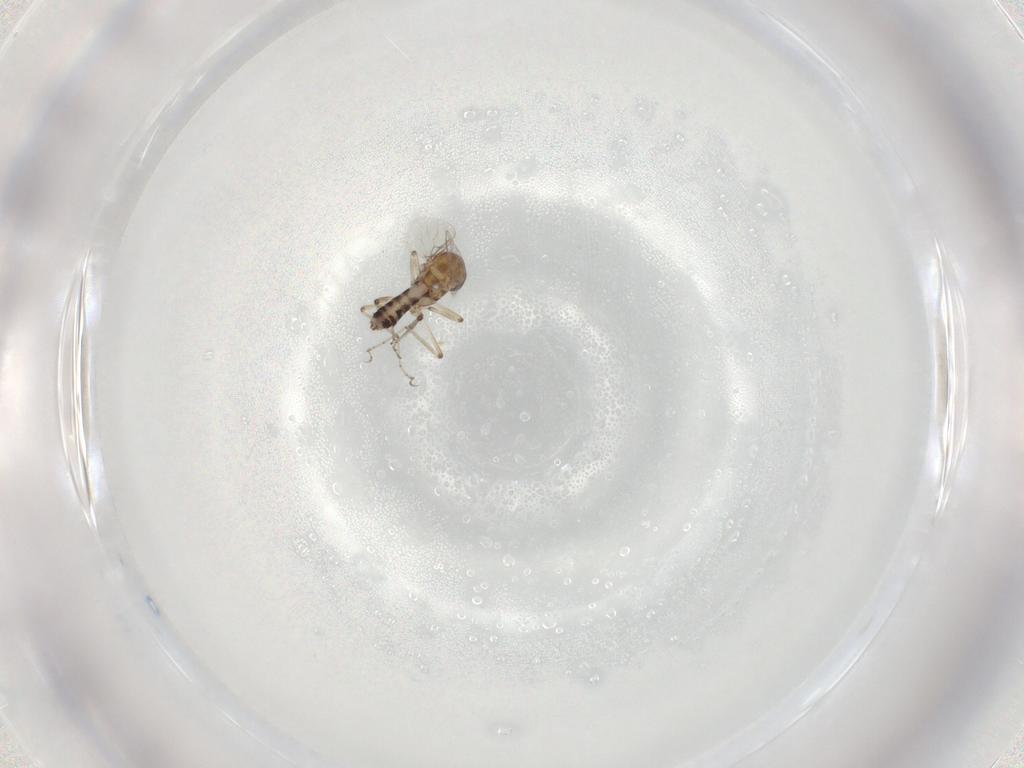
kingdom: Animalia
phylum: Arthropoda
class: Insecta
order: Diptera
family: Ceratopogonidae
